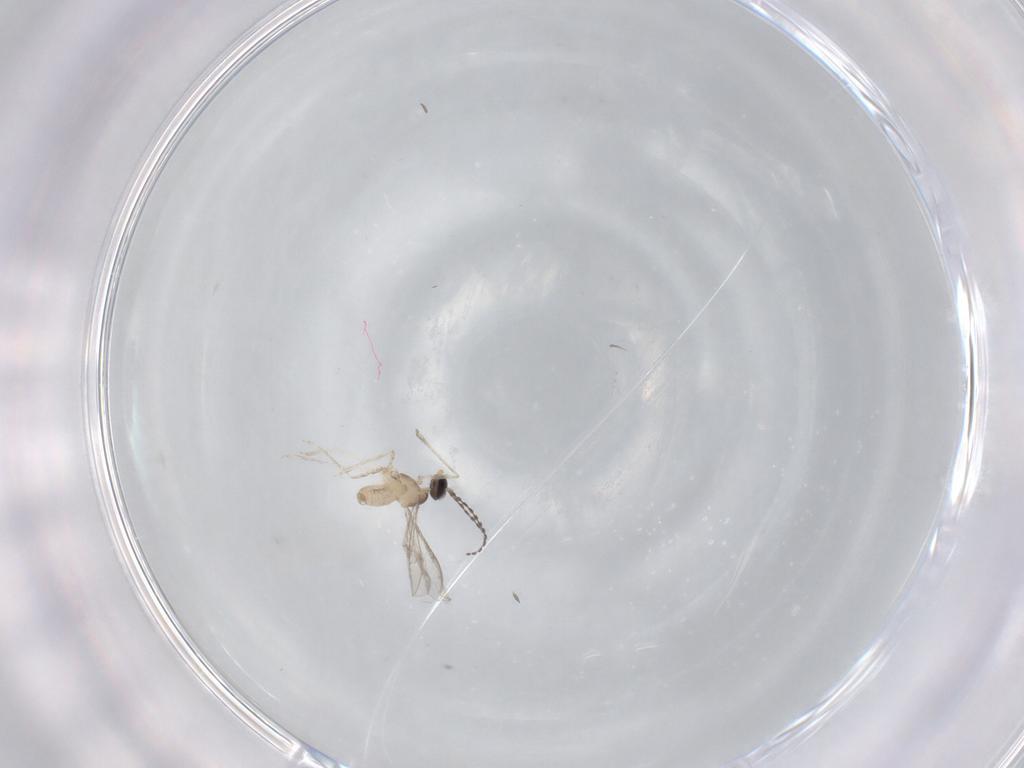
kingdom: Animalia
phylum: Arthropoda
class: Insecta
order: Diptera
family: Cecidomyiidae
